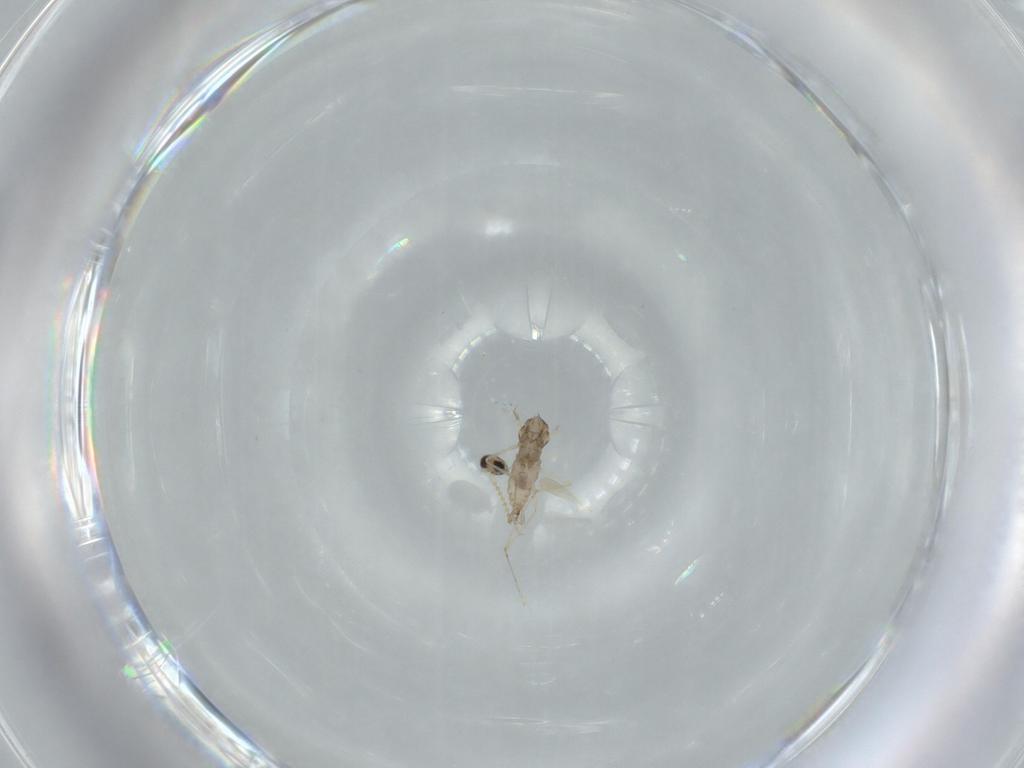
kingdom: Animalia
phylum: Arthropoda
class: Insecta
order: Diptera
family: Cecidomyiidae
